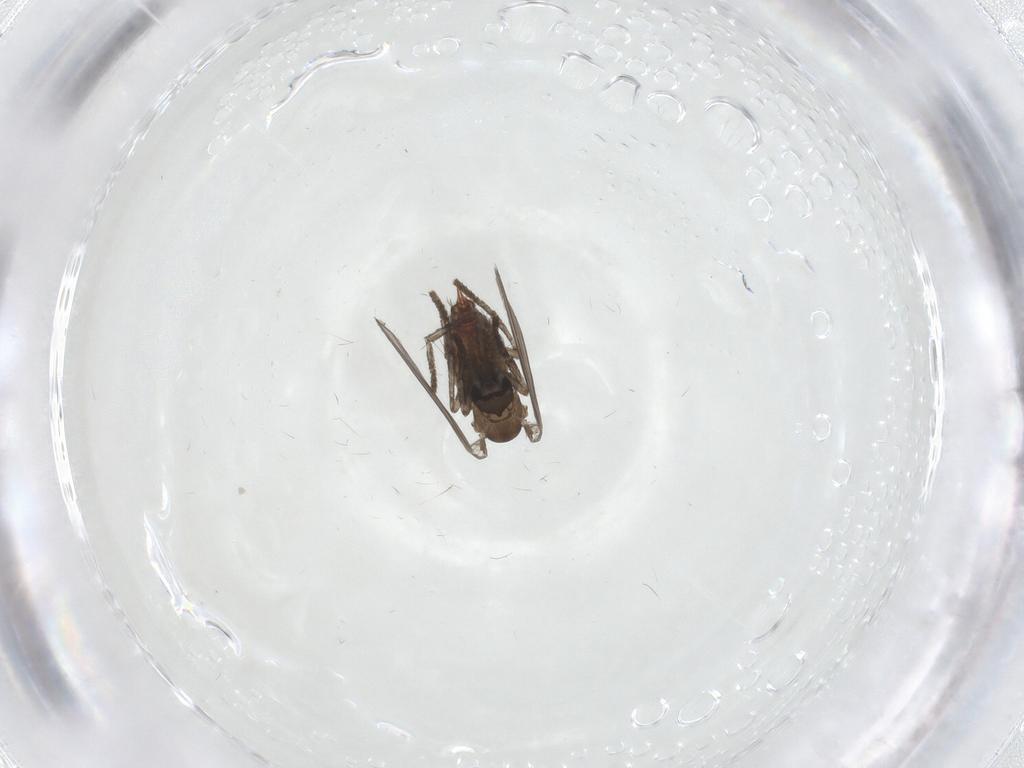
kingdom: Animalia
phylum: Arthropoda
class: Insecta
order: Diptera
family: Psychodidae
